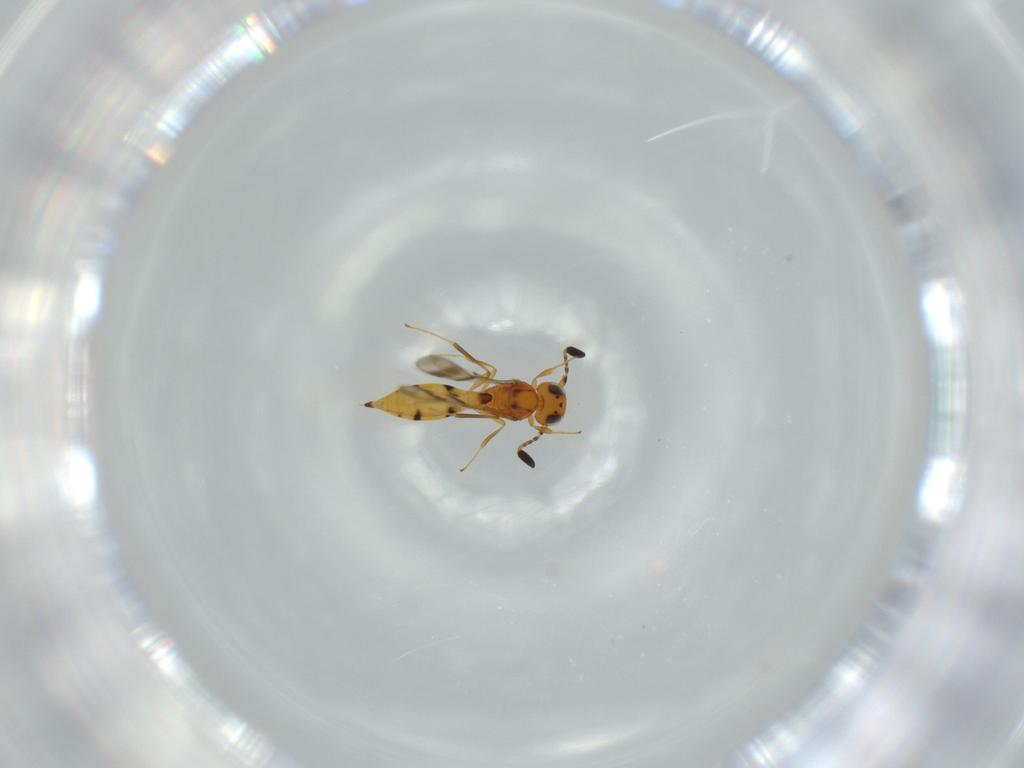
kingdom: Animalia
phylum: Arthropoda
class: Insecta
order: Hymenoptera
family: Scelionidae
